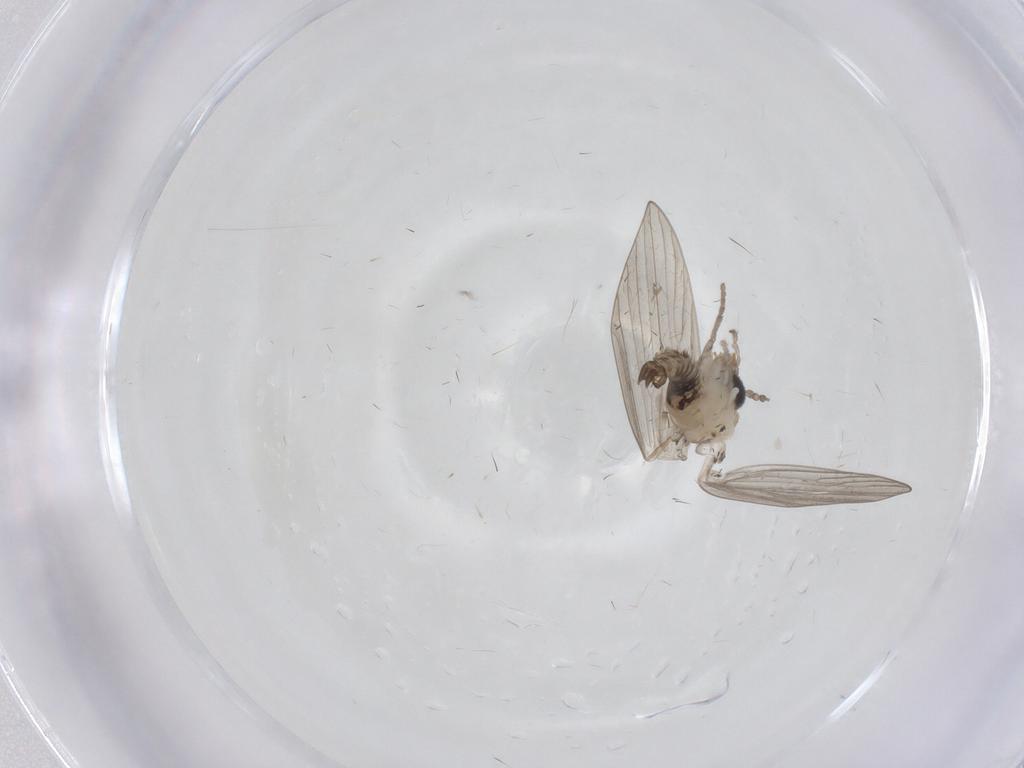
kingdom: Animalia
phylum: Arthropoda
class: Insecta
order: Diptera
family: Psychodidae
